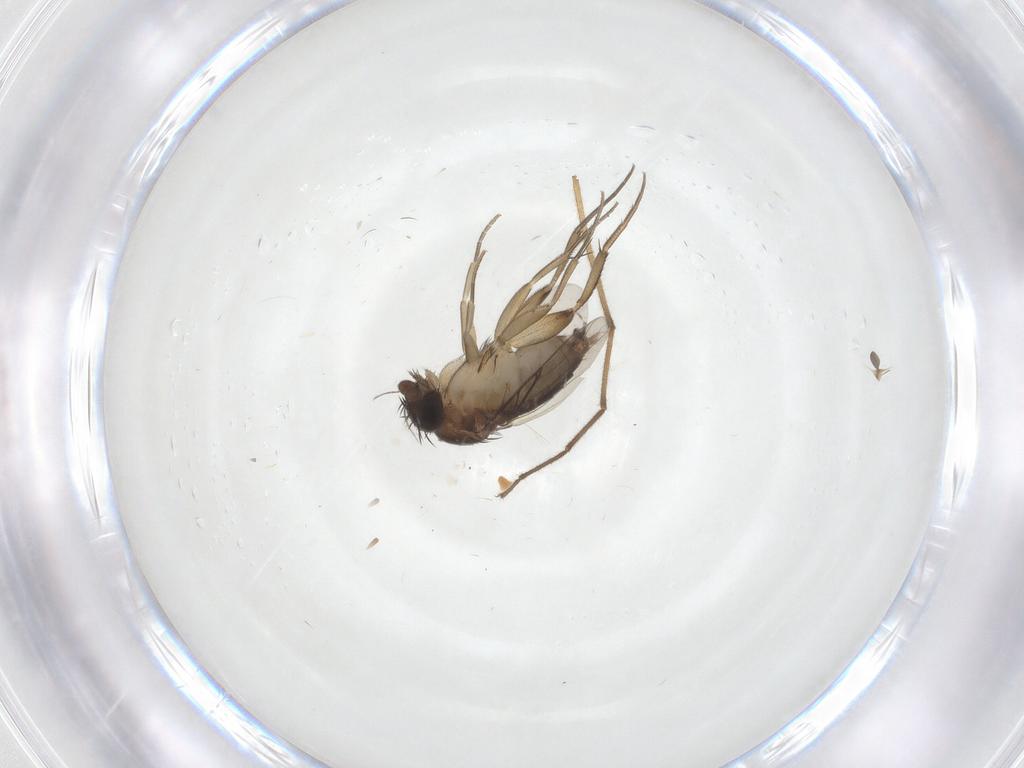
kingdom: Animalia
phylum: Arthropoda
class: Insecta
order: Diptera
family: Phoridae
